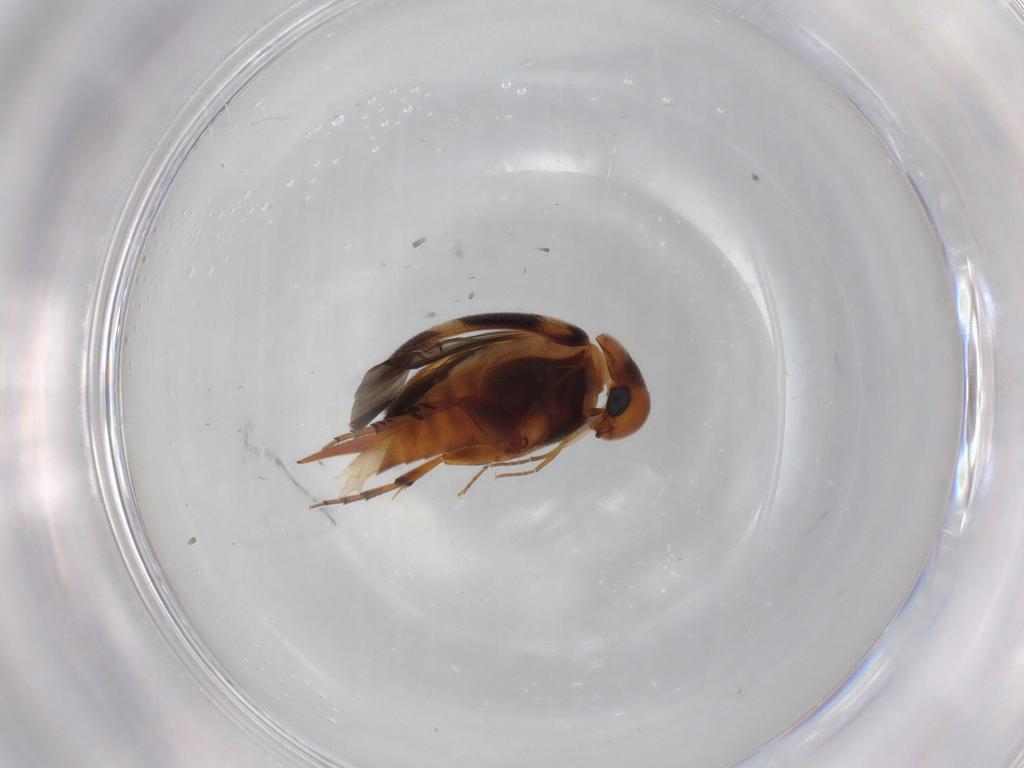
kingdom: Animalia
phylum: Arthropoda
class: Insecta
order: Coleoptera
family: Mordellidae
